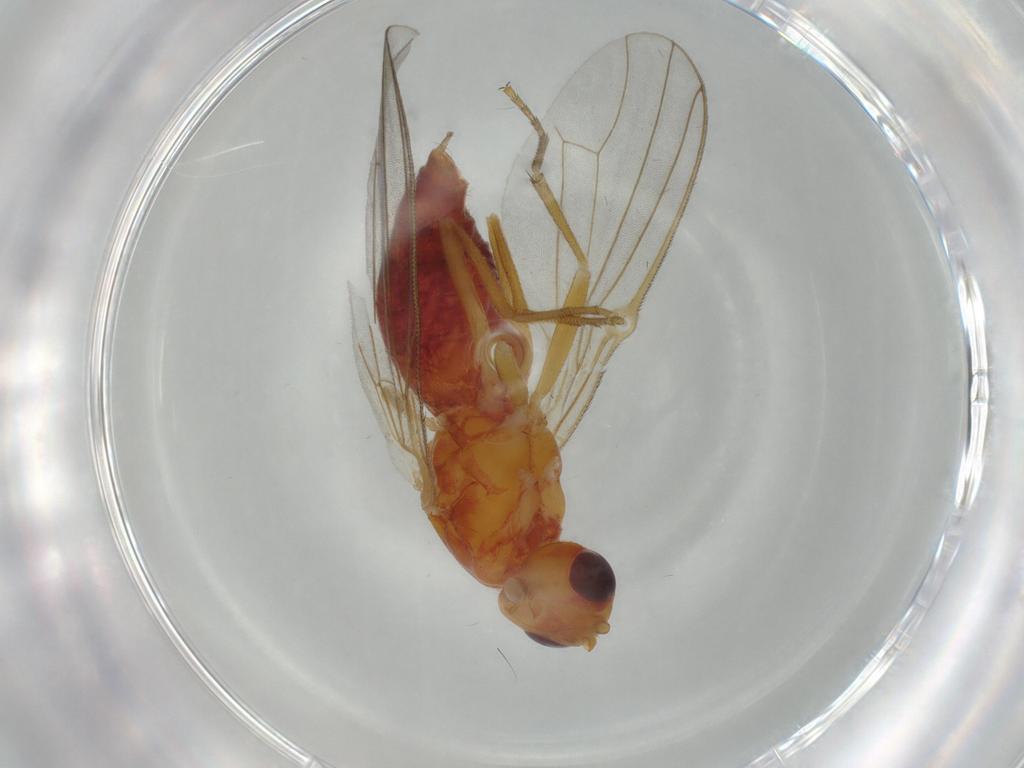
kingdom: Animalia
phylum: Arthropoda
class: Insecta
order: Diptera
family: Psilidae
